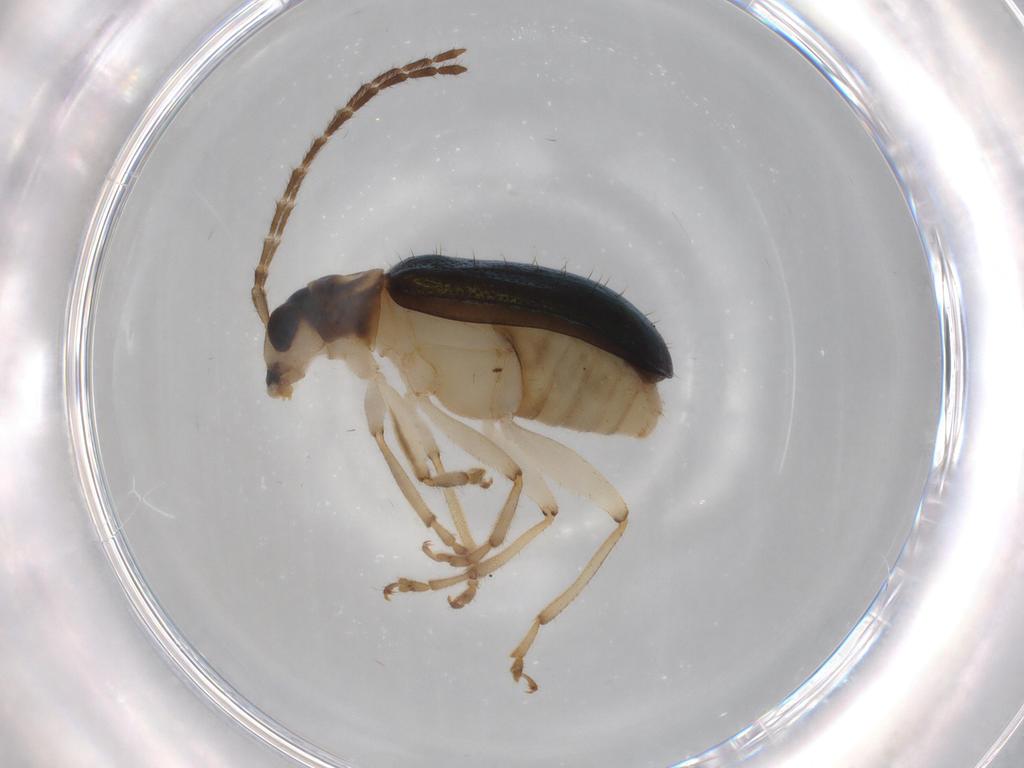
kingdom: Animalia
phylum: Arthropoda
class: Insecta
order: Coleoptera
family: Chrysomelidae
